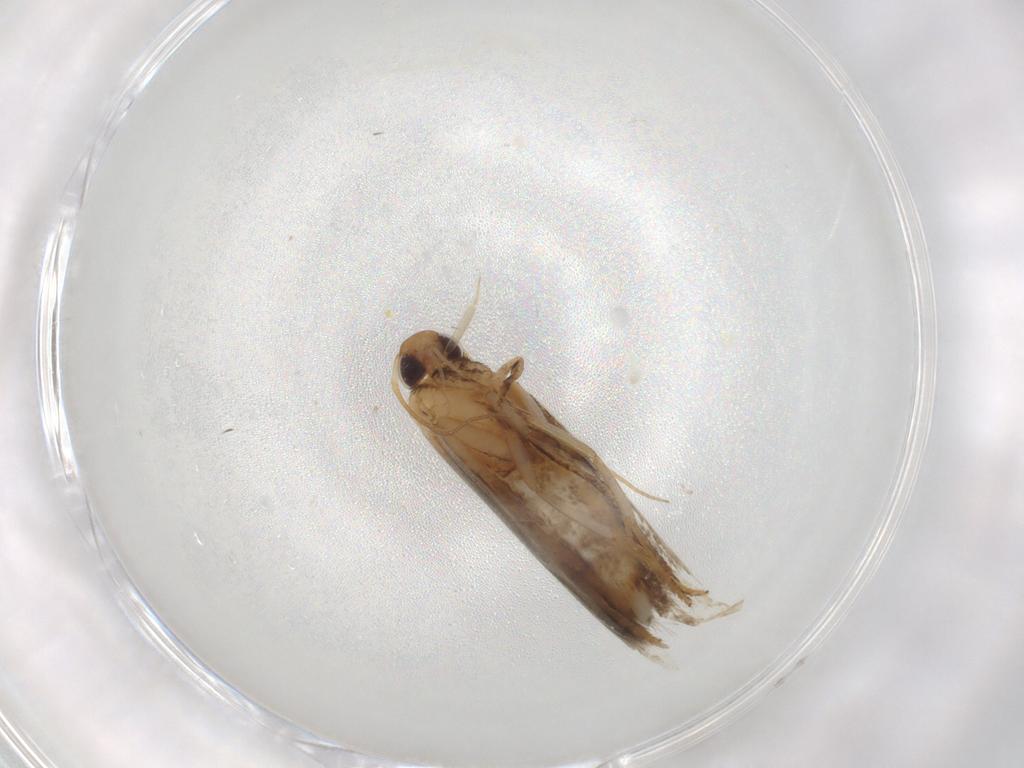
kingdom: Animalia
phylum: Arthropoda
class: Insecta
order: Lepidoptera
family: Gelechiidae
